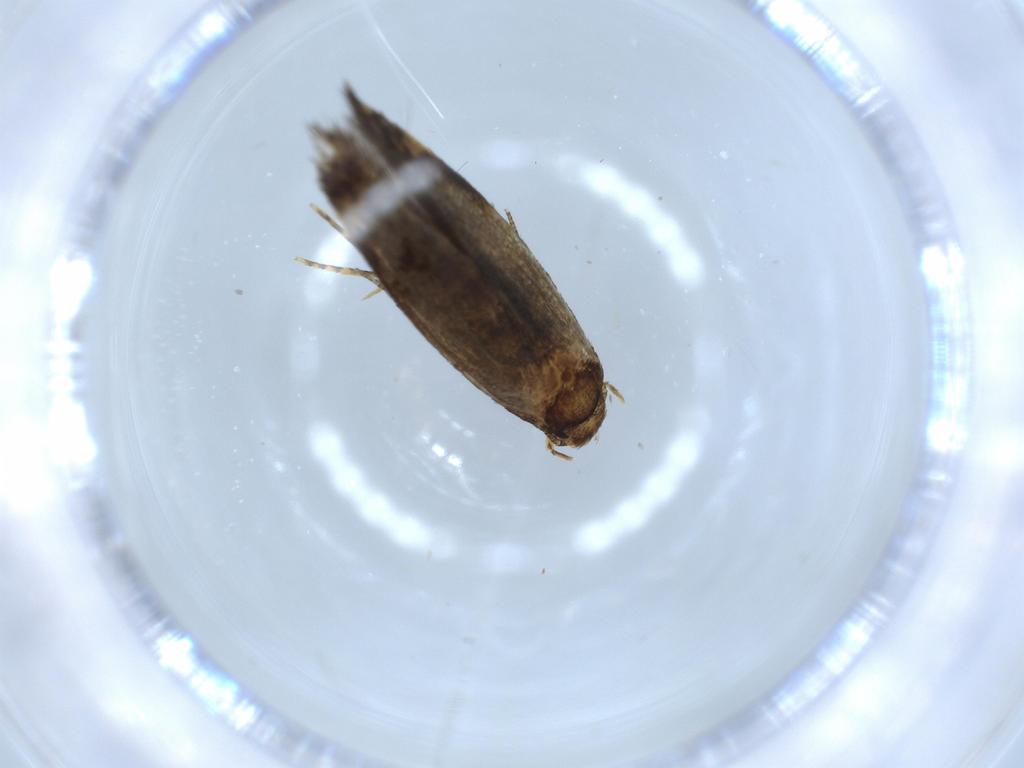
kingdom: Animalia
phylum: Arthropoda
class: Insecta
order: Lepidoptera
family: Tineidae
